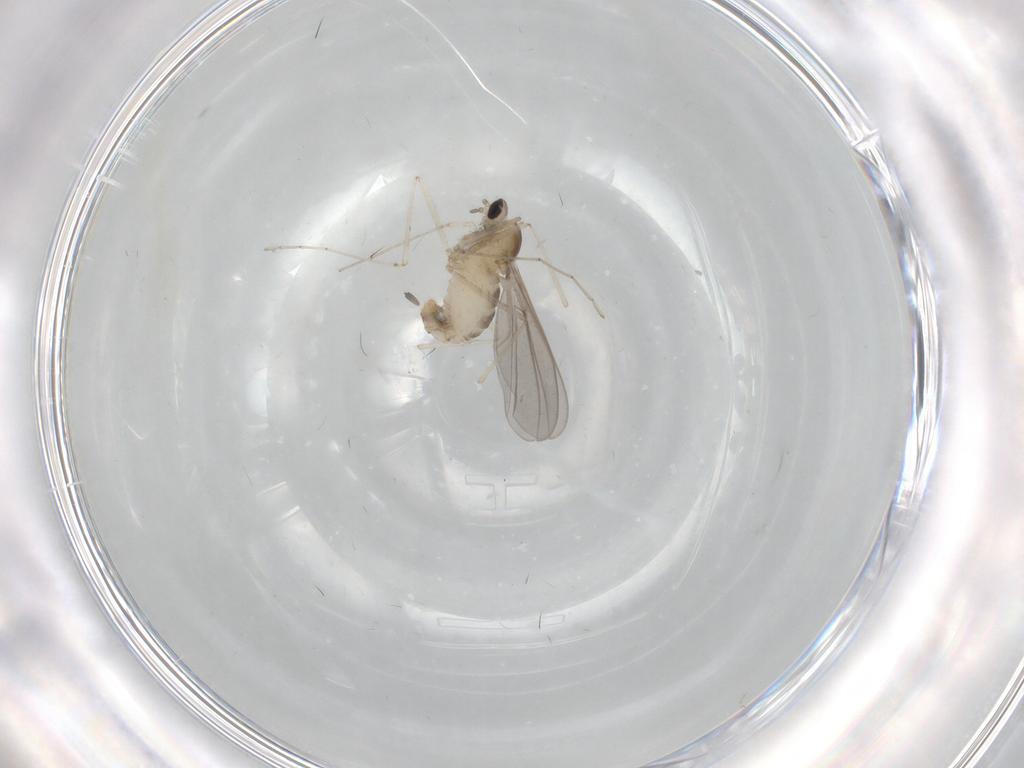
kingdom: Animalia
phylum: Arthropoda
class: Insecta
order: Diptera
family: Cecidomyiidae
